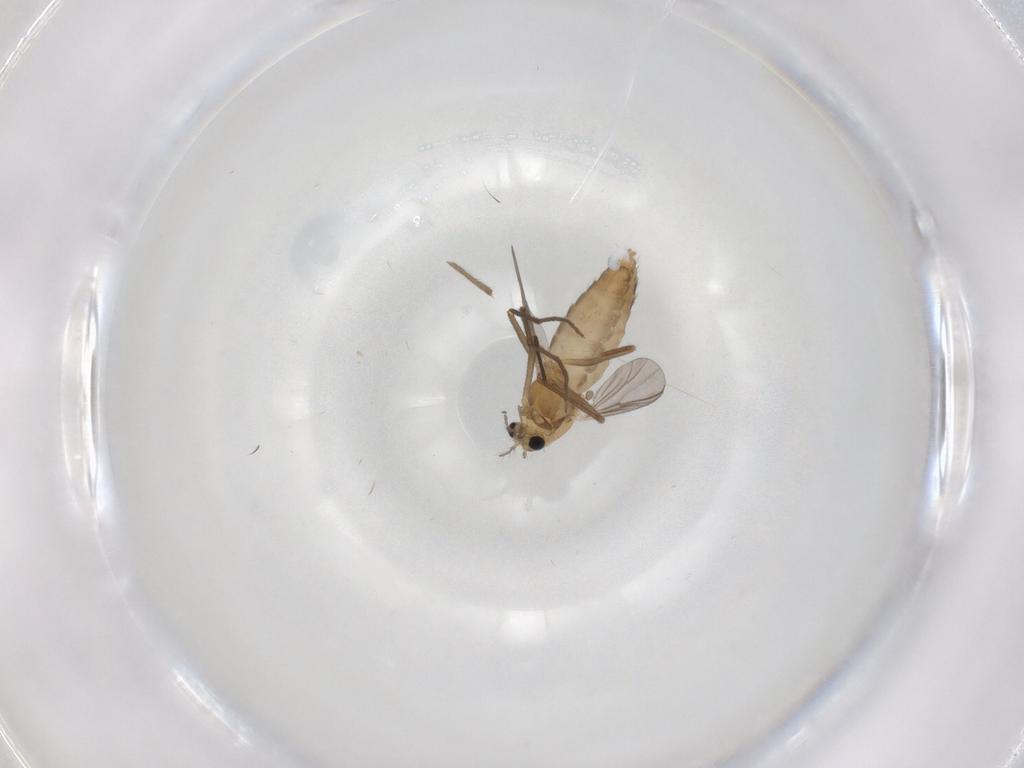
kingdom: Animalia
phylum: Arthropoda
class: Insecta
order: Diptera
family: Chironomidae
